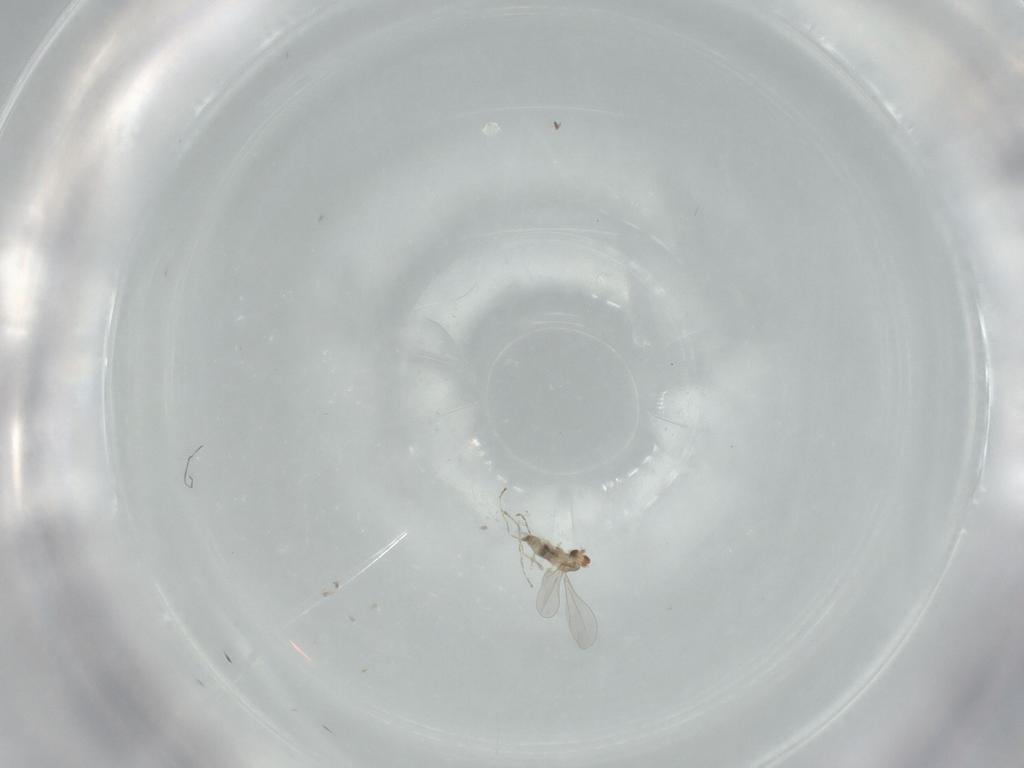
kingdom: Animalia
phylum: Arthropoda
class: Insecta
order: Diptera
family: Cecidomyiidae
